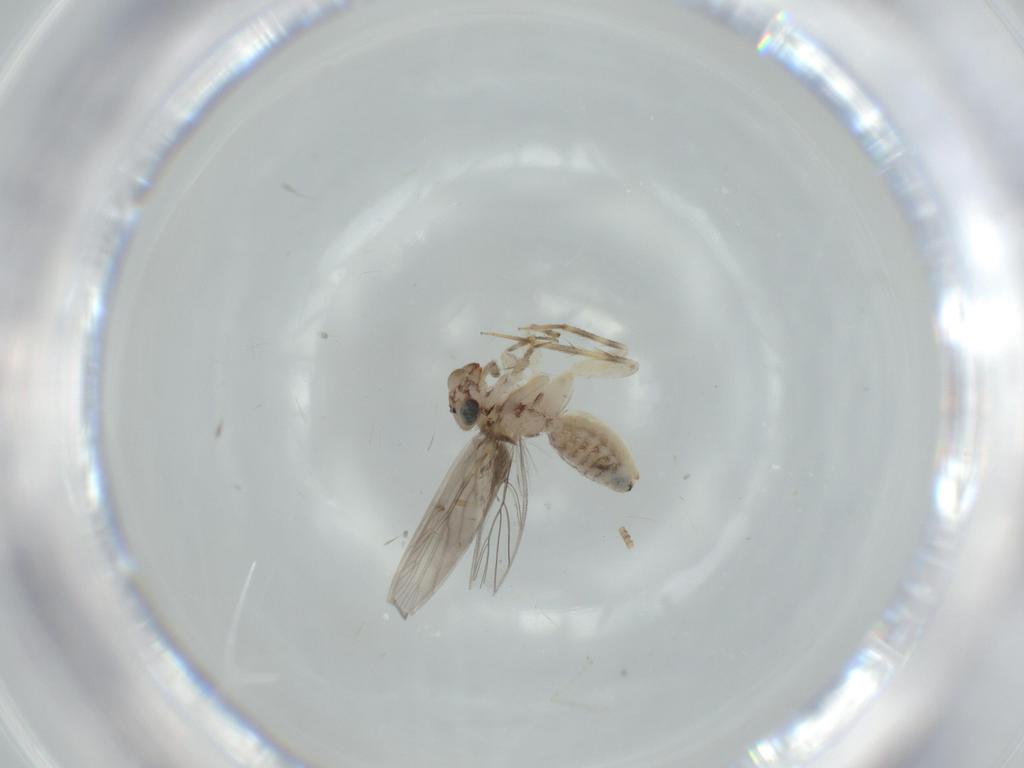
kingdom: Animalia
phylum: Arthropoda
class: Insecta
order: Psocodea
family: Lepidopsocidae
